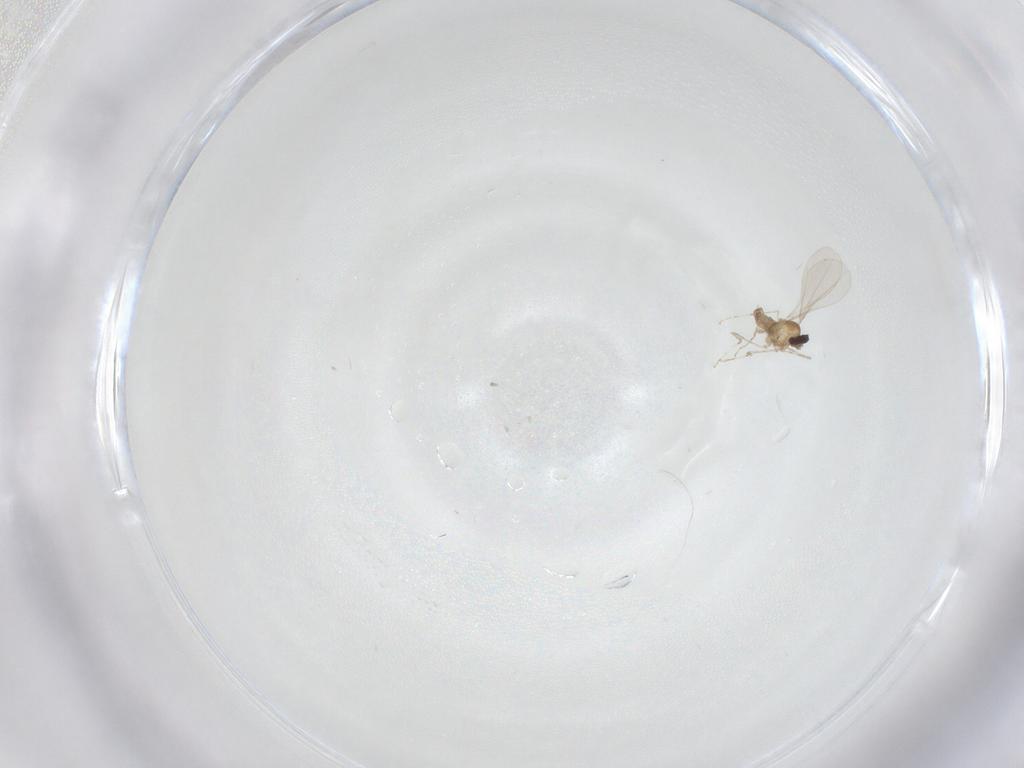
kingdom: Animalia
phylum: Arthropoda
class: Insecta
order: Diptera
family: Cecidomyiidae
